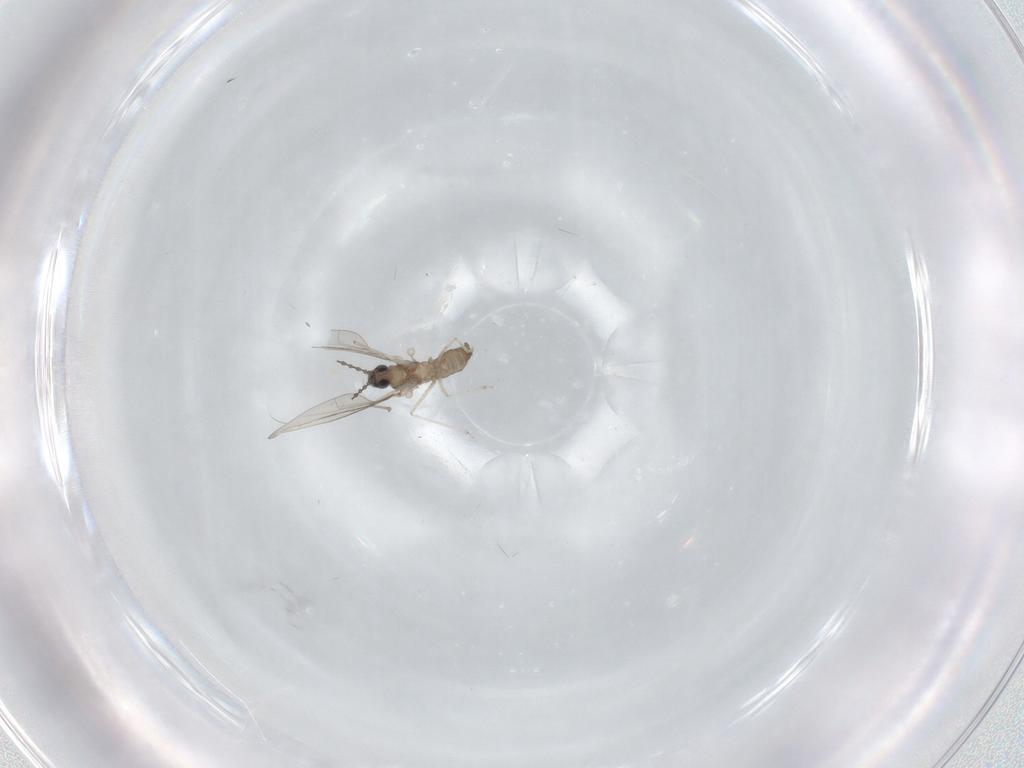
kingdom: Animalia
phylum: Arthropoda
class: Insecta
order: Diptera
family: Cecidomyiidae
